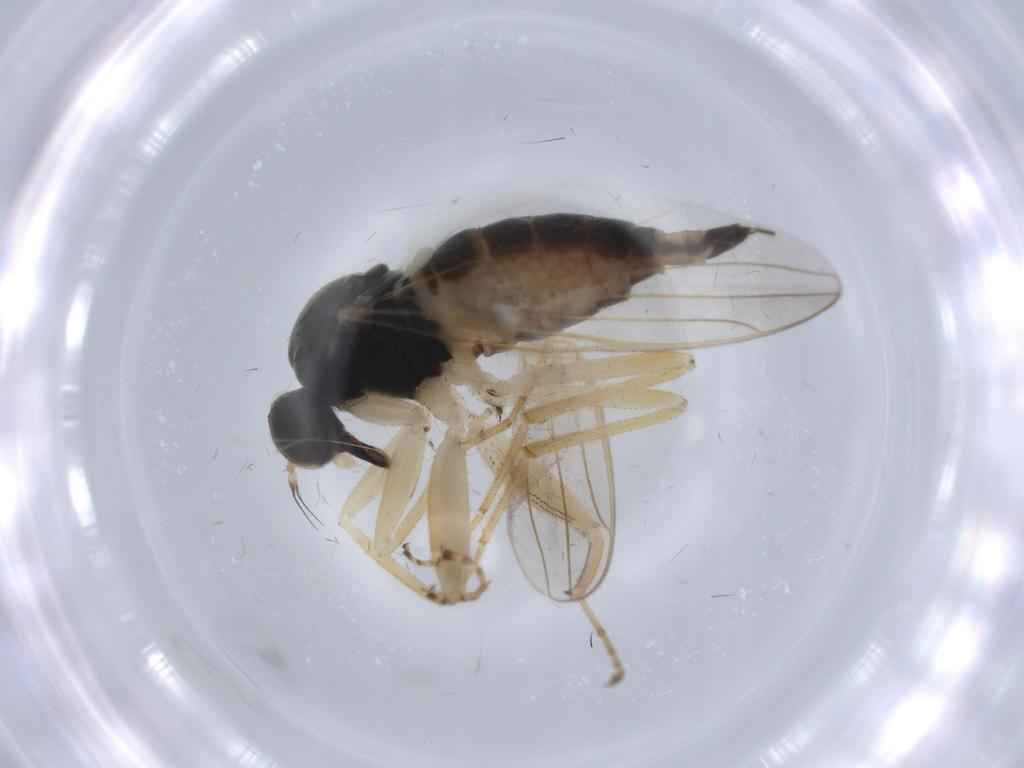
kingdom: Animalia
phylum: Arthropoda
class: Insecta
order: Diptera
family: Hybotidae
